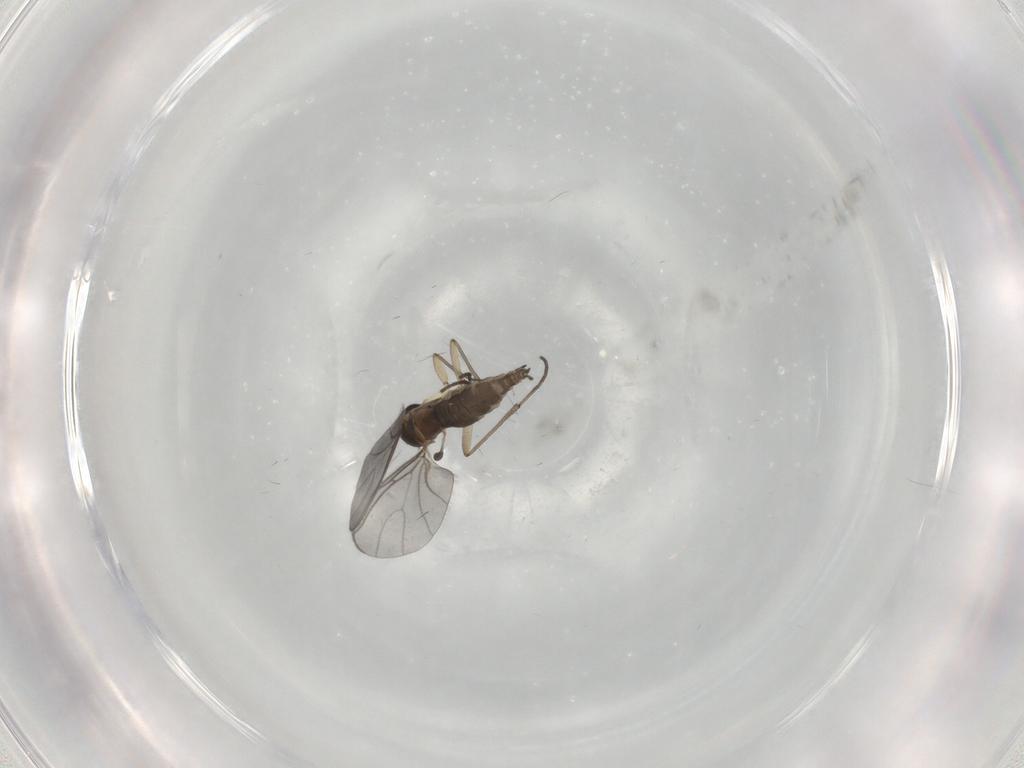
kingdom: Animalia
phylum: Arthropoda
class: Insecta
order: Diptera
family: Sciaridae
